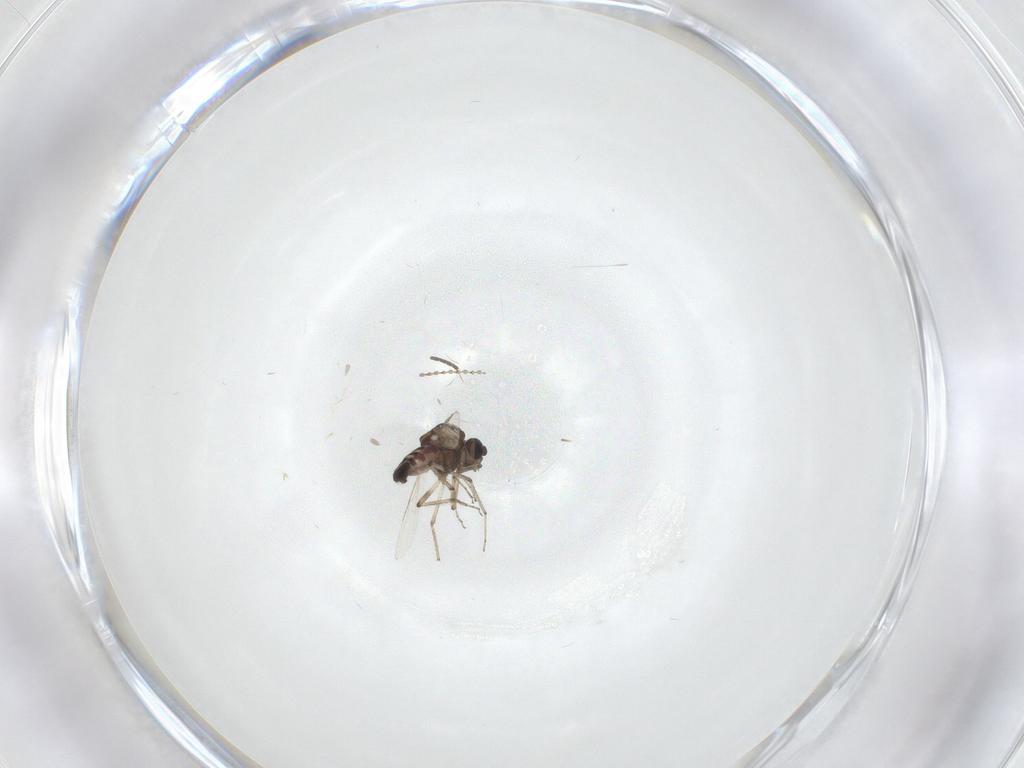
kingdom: Animalia
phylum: Arthropoda
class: Insecta
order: Diptera
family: Ceratopogonidae
